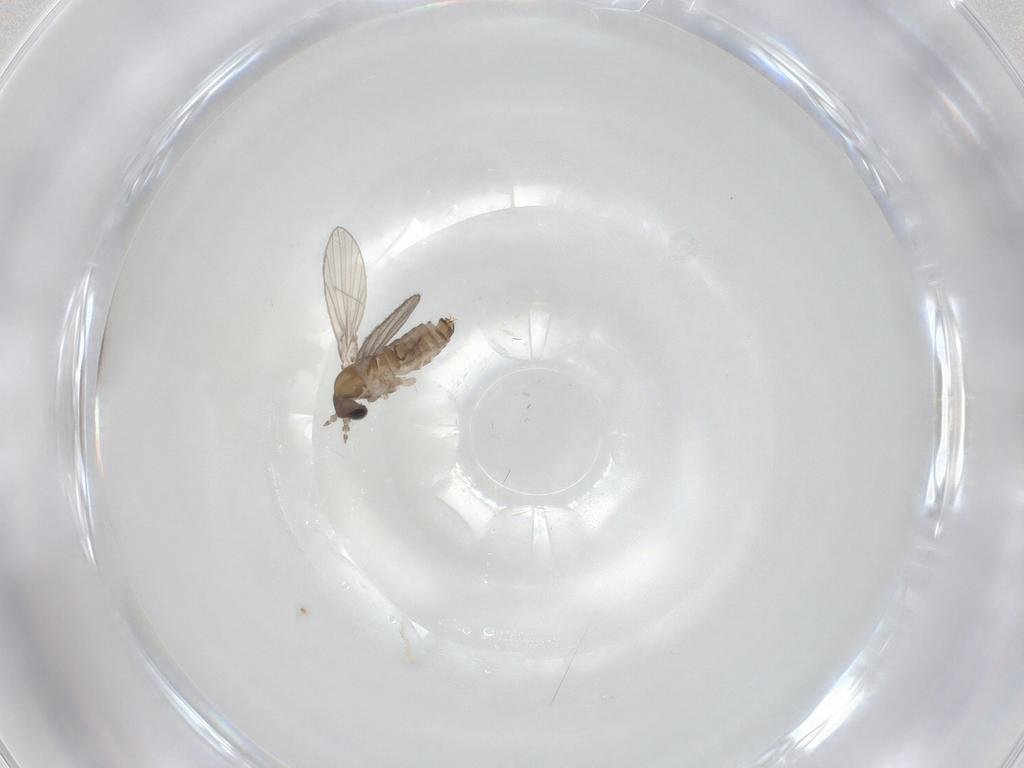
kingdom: Animalia
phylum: Arthropoda
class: Insecta
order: Diptera
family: Psychodidae
